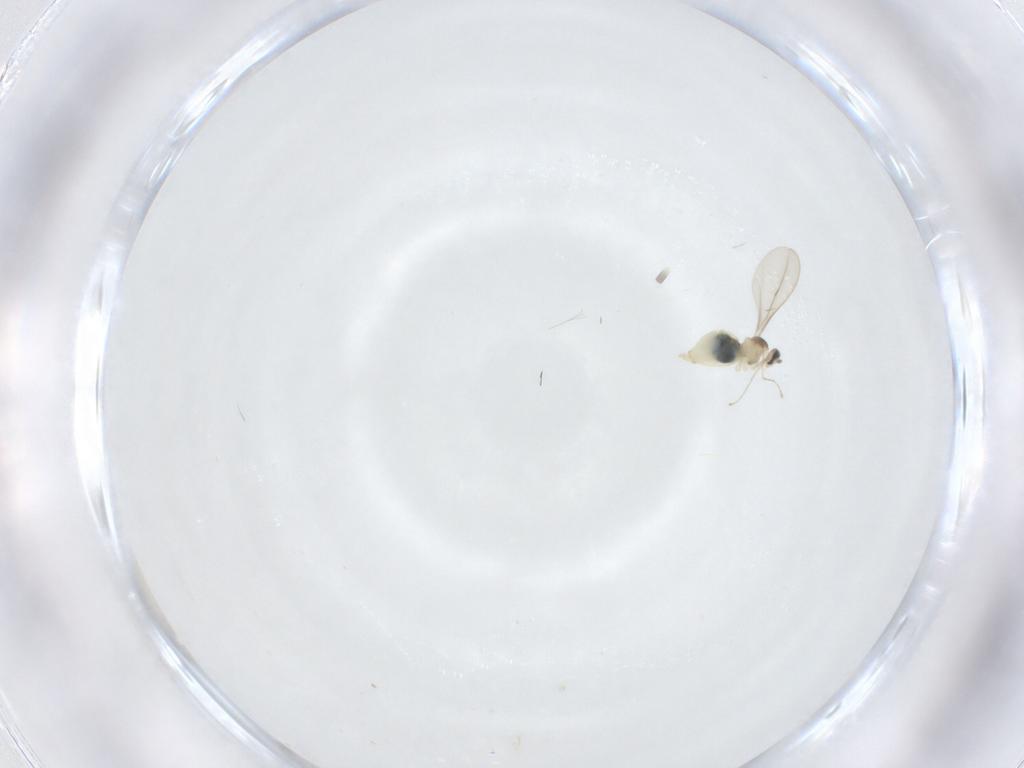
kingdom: Animalia
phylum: Arthropoda
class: Insecta
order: Diptera
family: Cecidomyiidae
